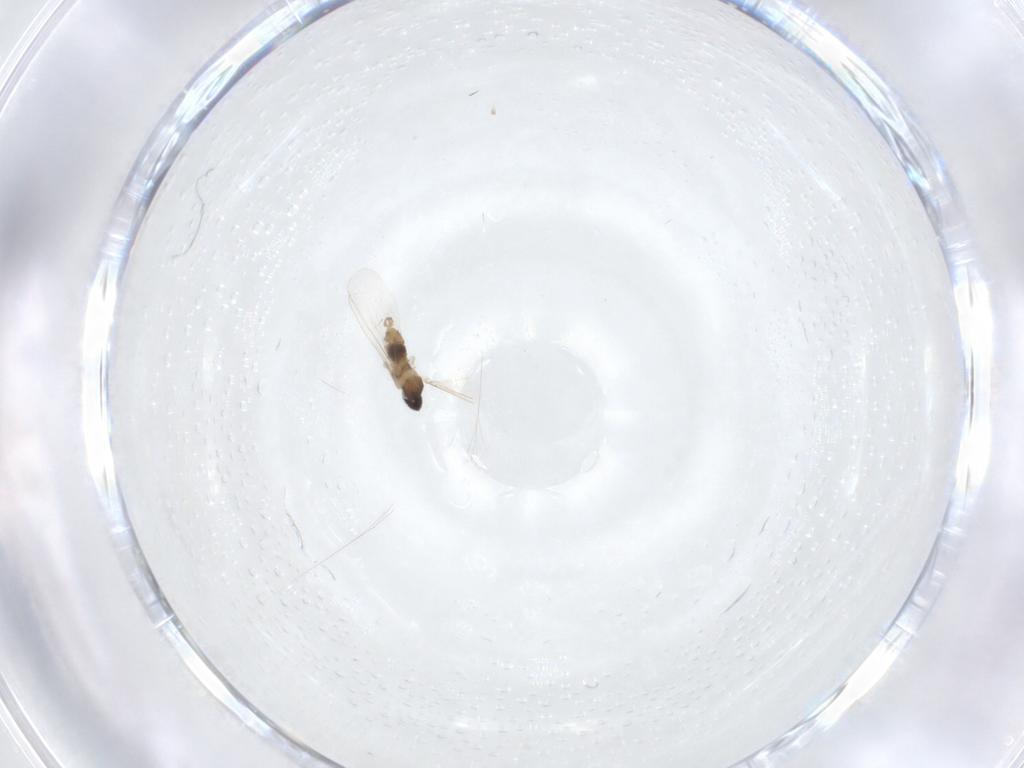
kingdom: Animalia
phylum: Arthropoda
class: Insecta
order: Diptera
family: Cecidomyiidae
